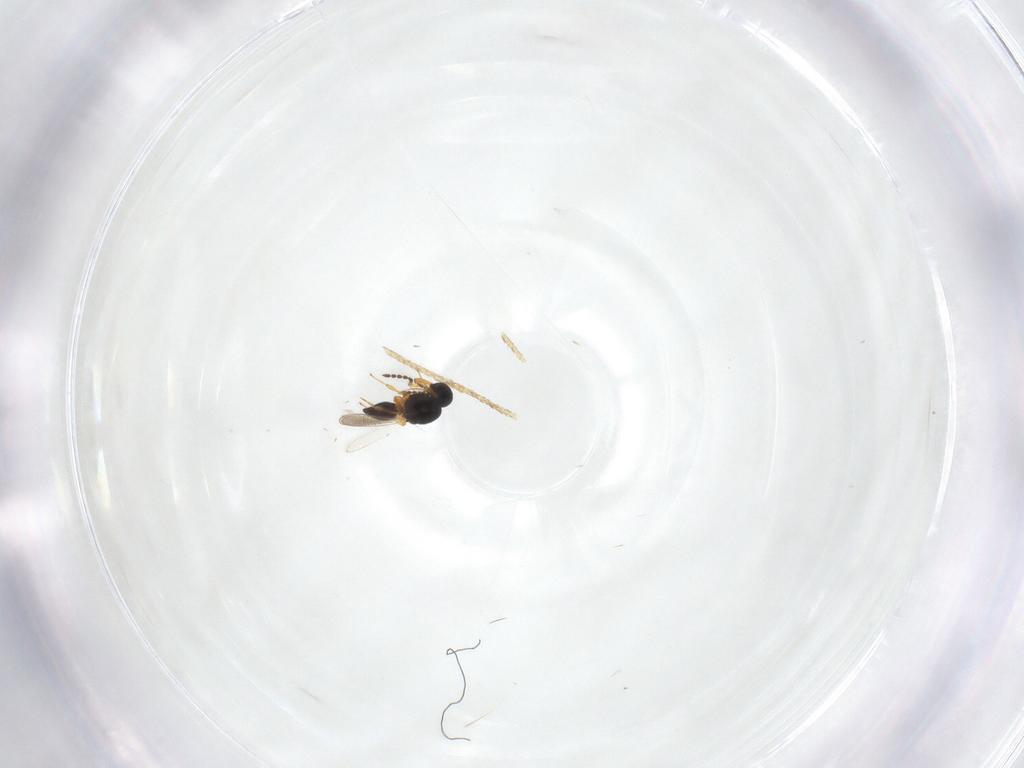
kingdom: Animalia
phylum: Arthropoda
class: Insecta
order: Hymenoptera
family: Platygastridae
